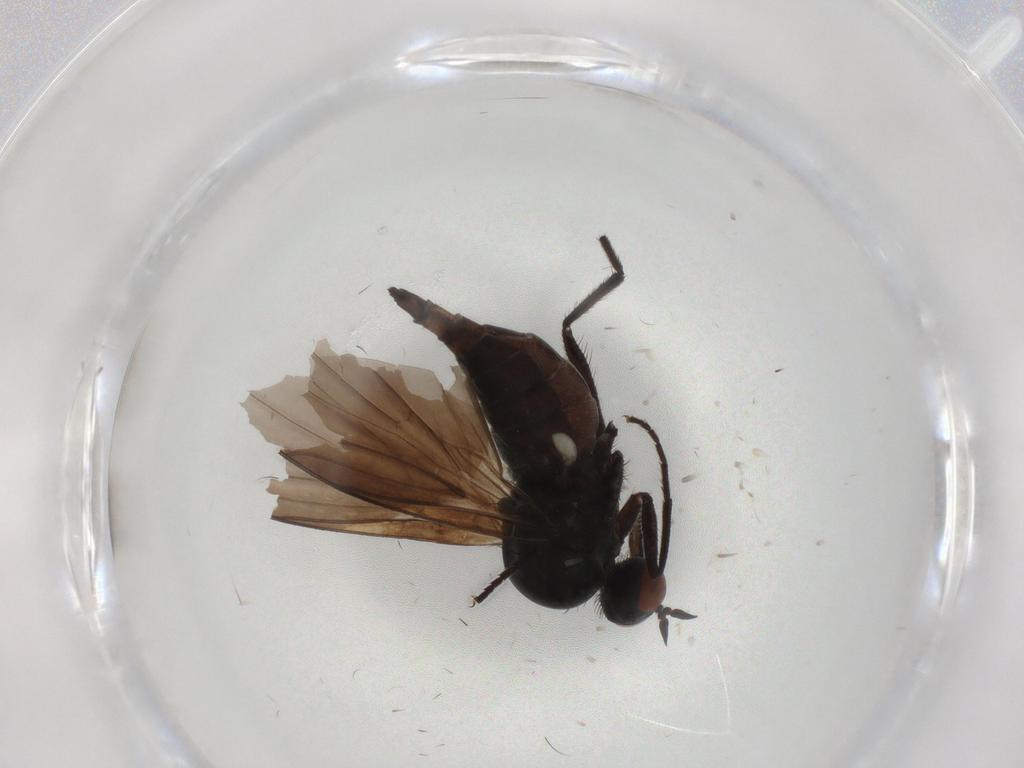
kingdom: Animalia
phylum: Arthropoda
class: Insecta
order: Diptera
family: Empididae
